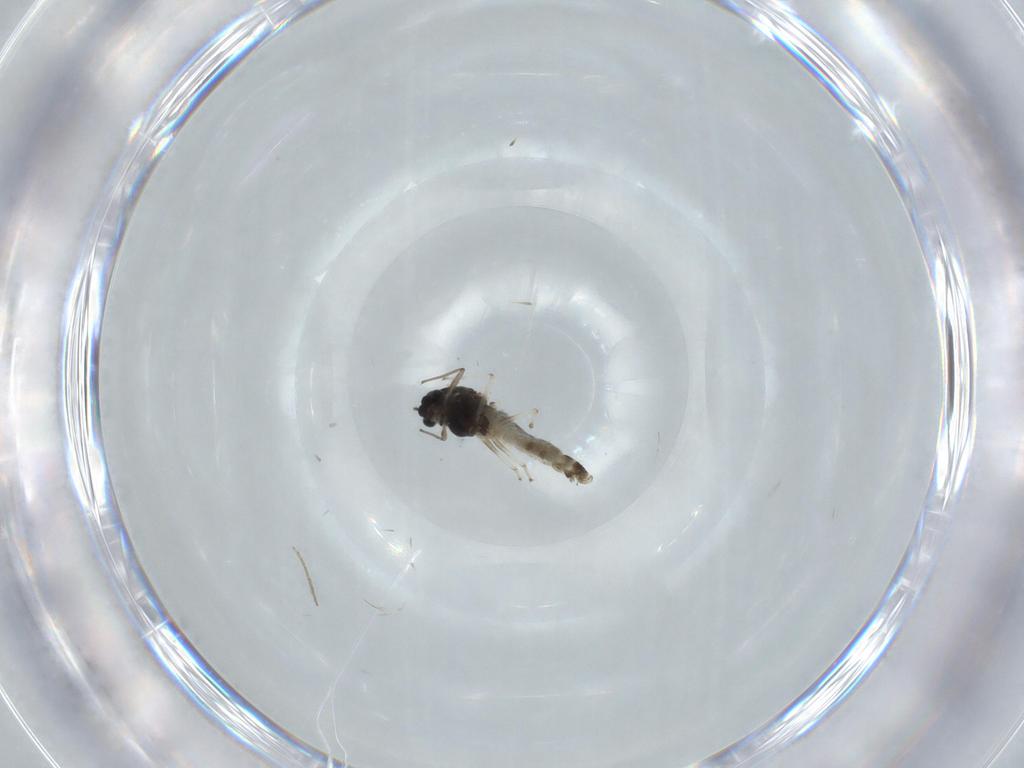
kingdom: Animalia
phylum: Arthropoda
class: Insecta
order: Diptera
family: Chironomidae
